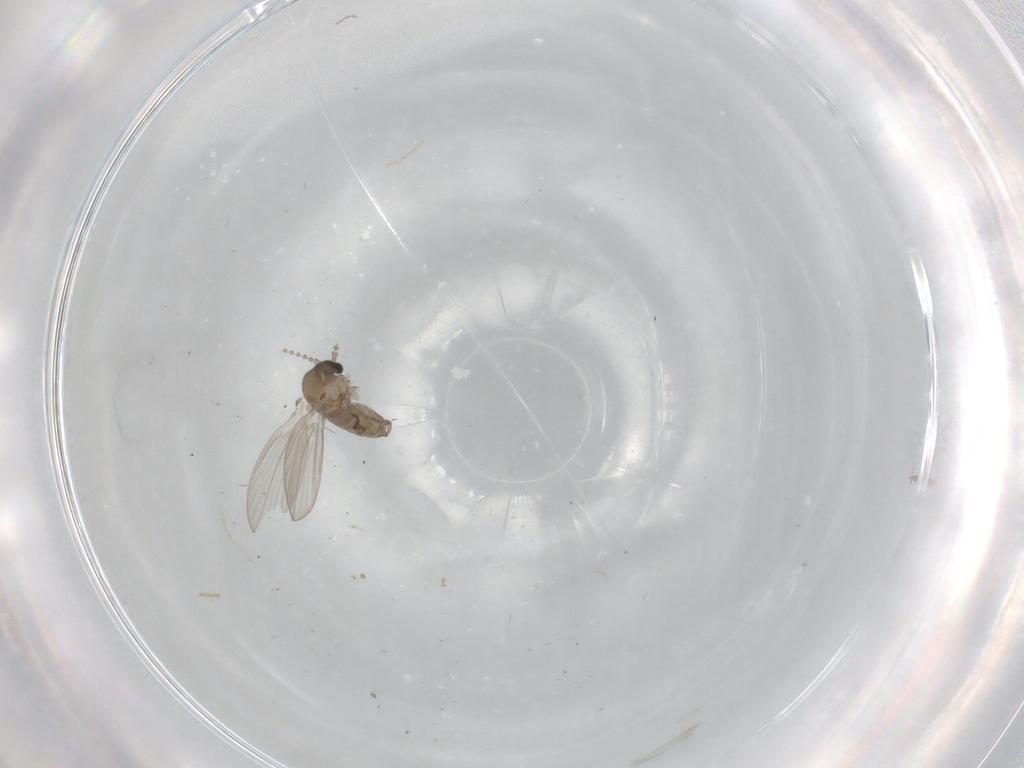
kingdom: Animalia
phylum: Arthropoda
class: Insecta
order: Diptera
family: Psychodidae
